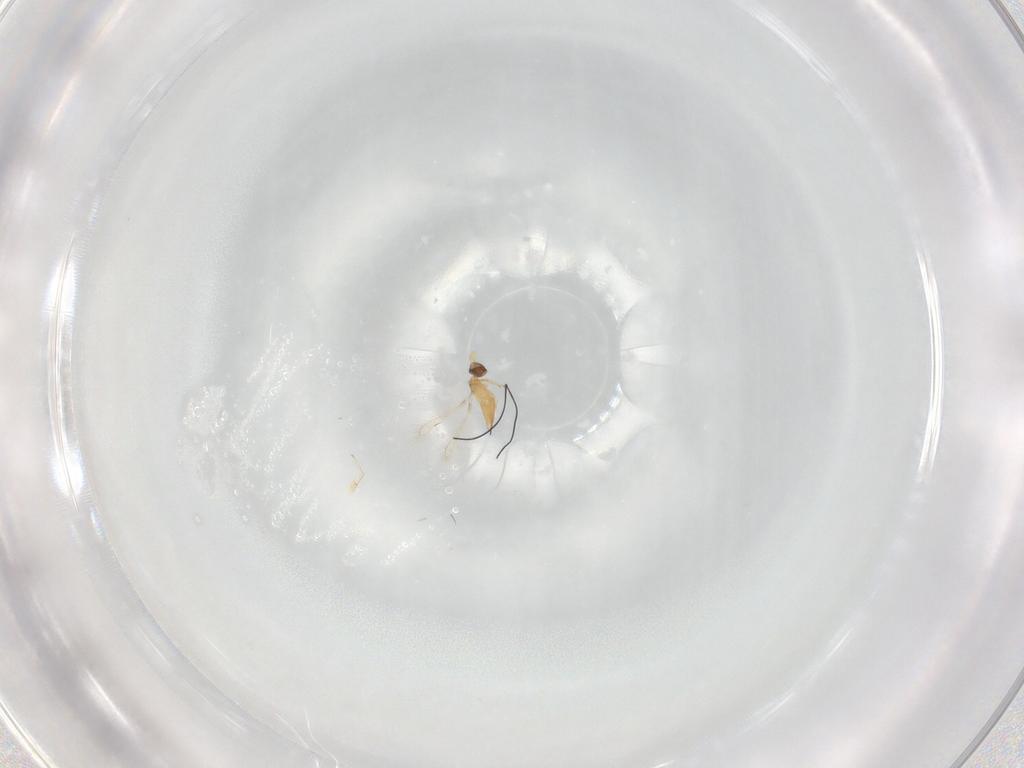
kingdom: Animalia
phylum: Arthropoda
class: Insecta
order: Hymenoptera
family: Mymaridae
